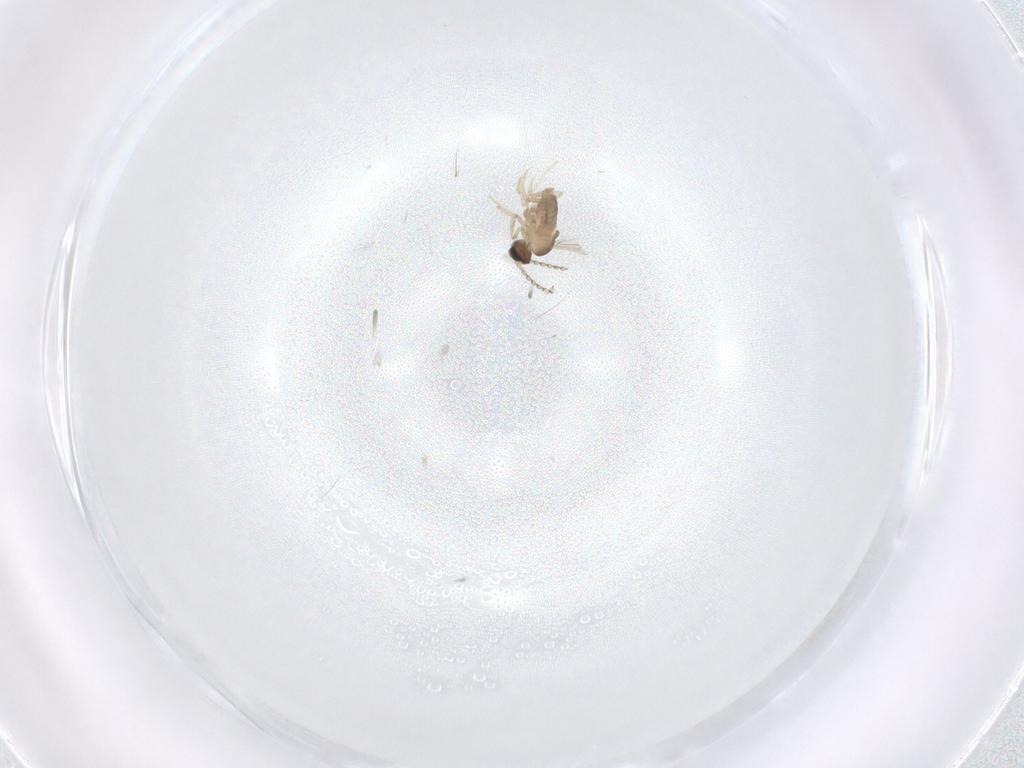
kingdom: Animalia
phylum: Arthropoda
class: Insecta
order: Diptera
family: Cecidomyiidae
